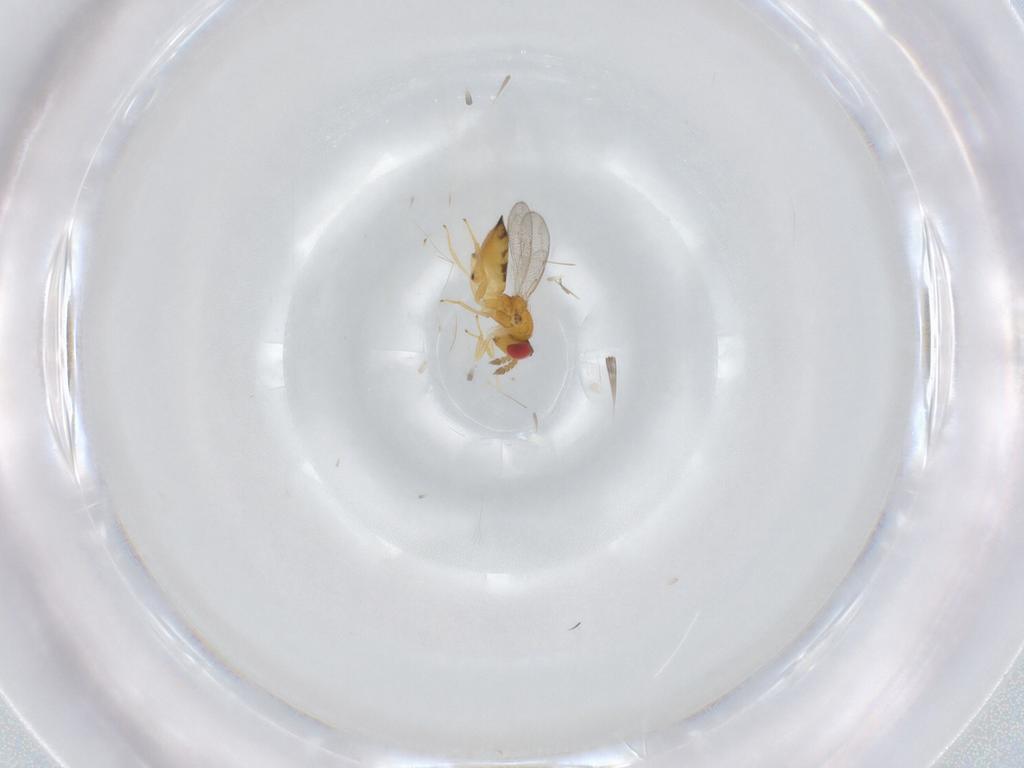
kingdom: Animalia
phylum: Arthropoda
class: Insecta
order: Hymenoptera
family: Eulophidae
